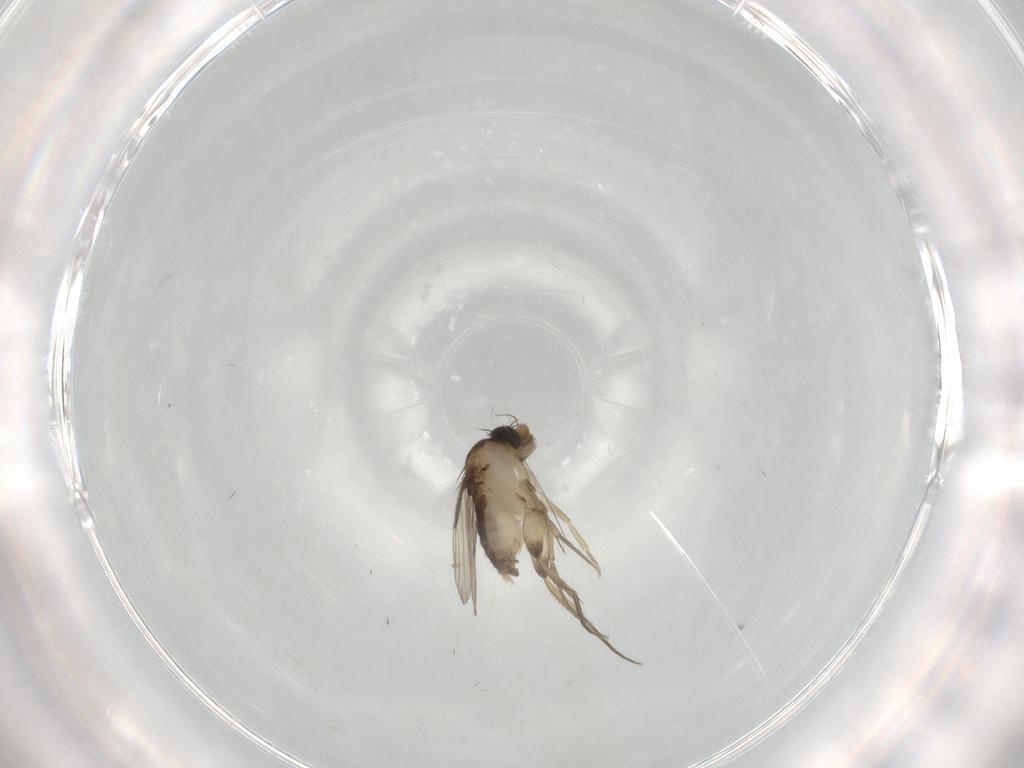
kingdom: Animalia
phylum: Arthropoda
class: Insecta
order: Diptera
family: Phoridae
